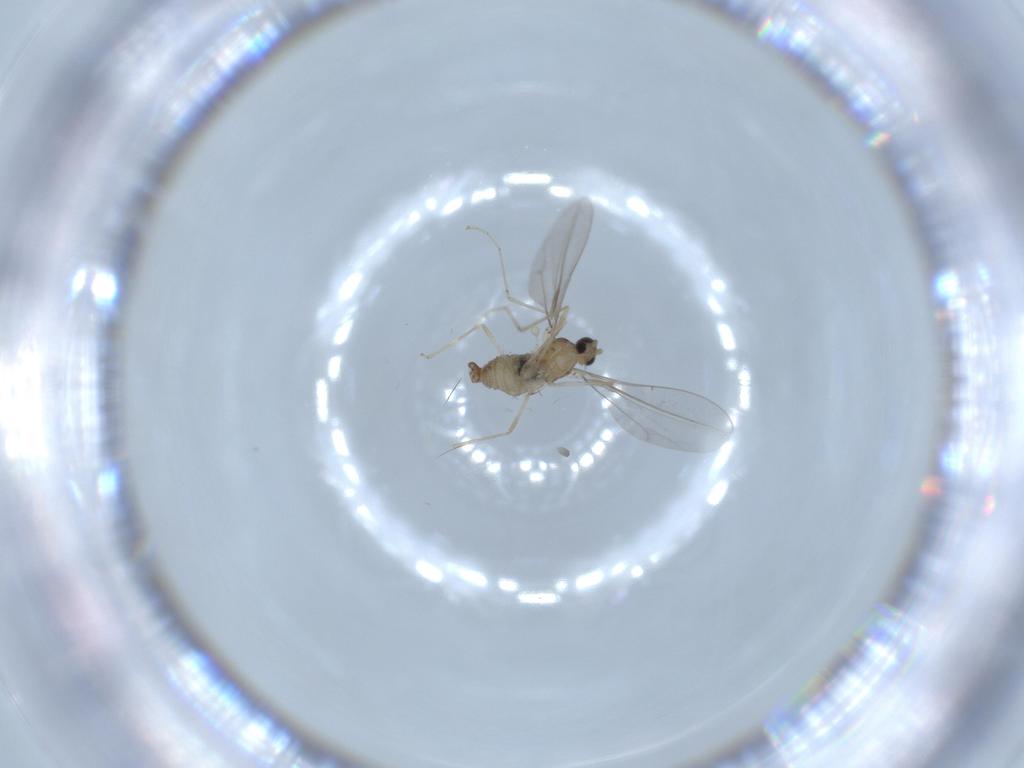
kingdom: Animalia
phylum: Arthropoda
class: Insecta
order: Diptera
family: Cecidomyiidae
